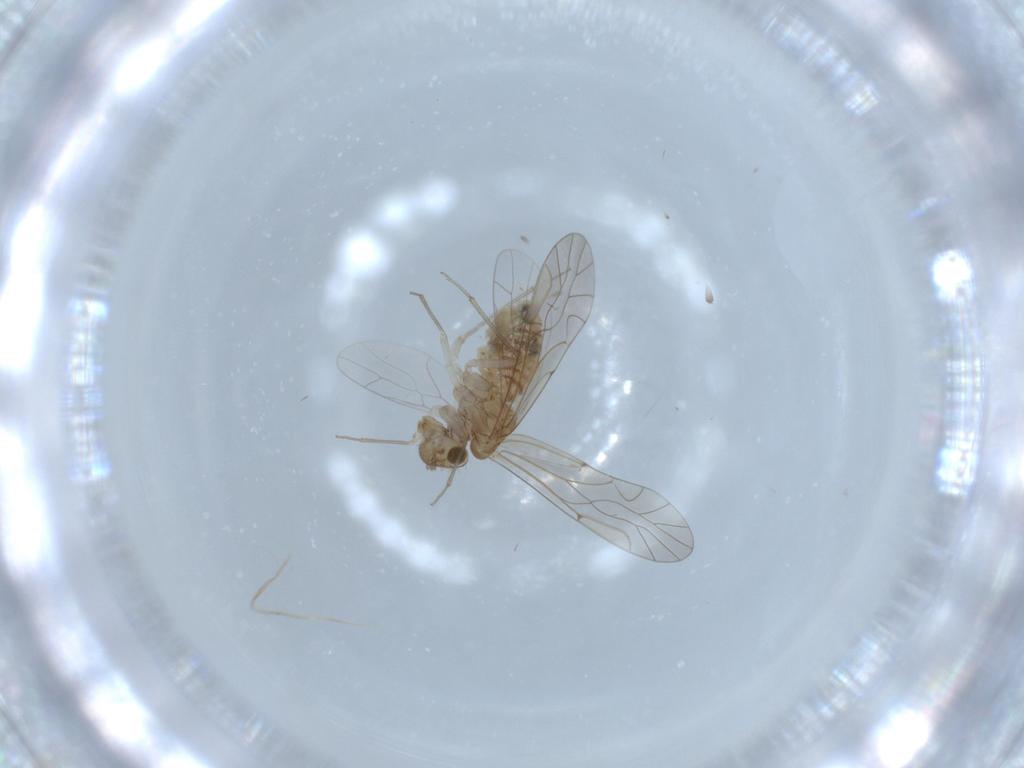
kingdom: Animalia
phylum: Arthropoda
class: Insecta
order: Psocodea
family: Lachesillidae
